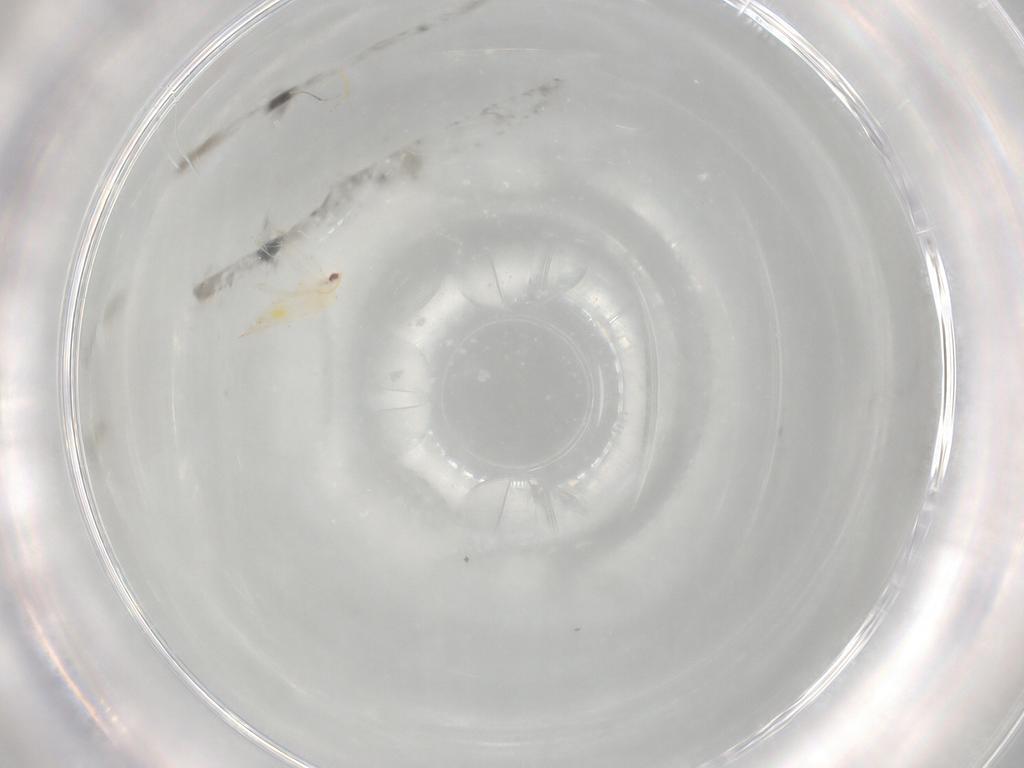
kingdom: Animalia
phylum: Arthropoda
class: Insecta
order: Hemiptera
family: Aleyrodidae
